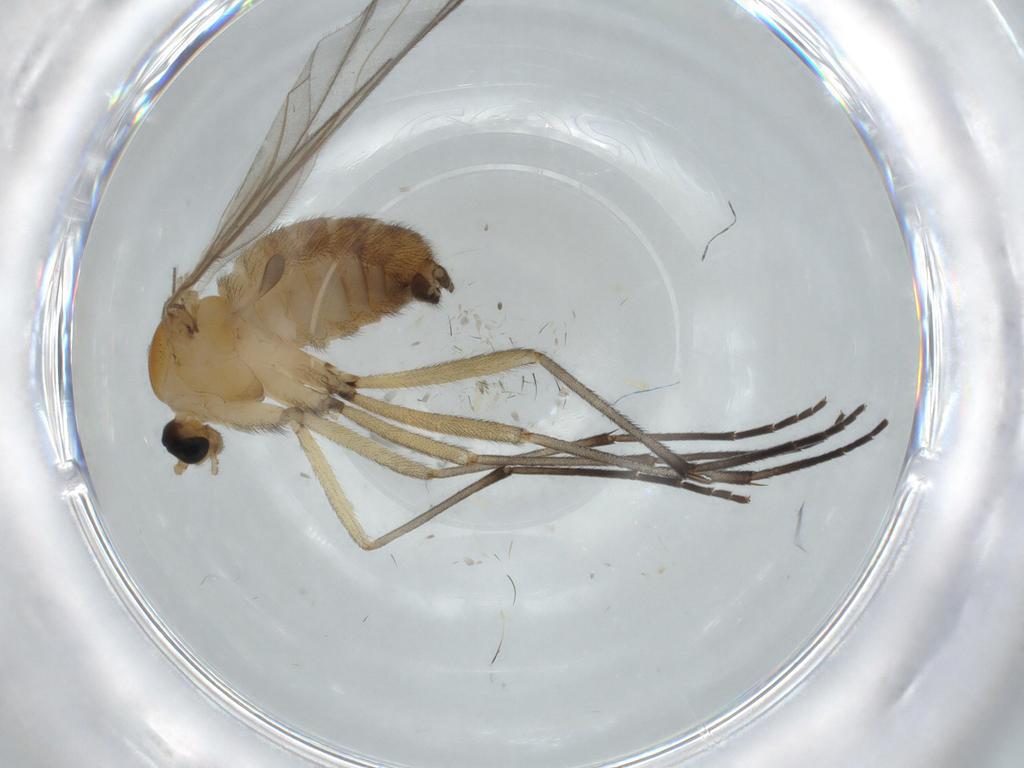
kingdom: Animalia
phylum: Arthropoda
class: Insecta
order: Diptera
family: Sciaridae
